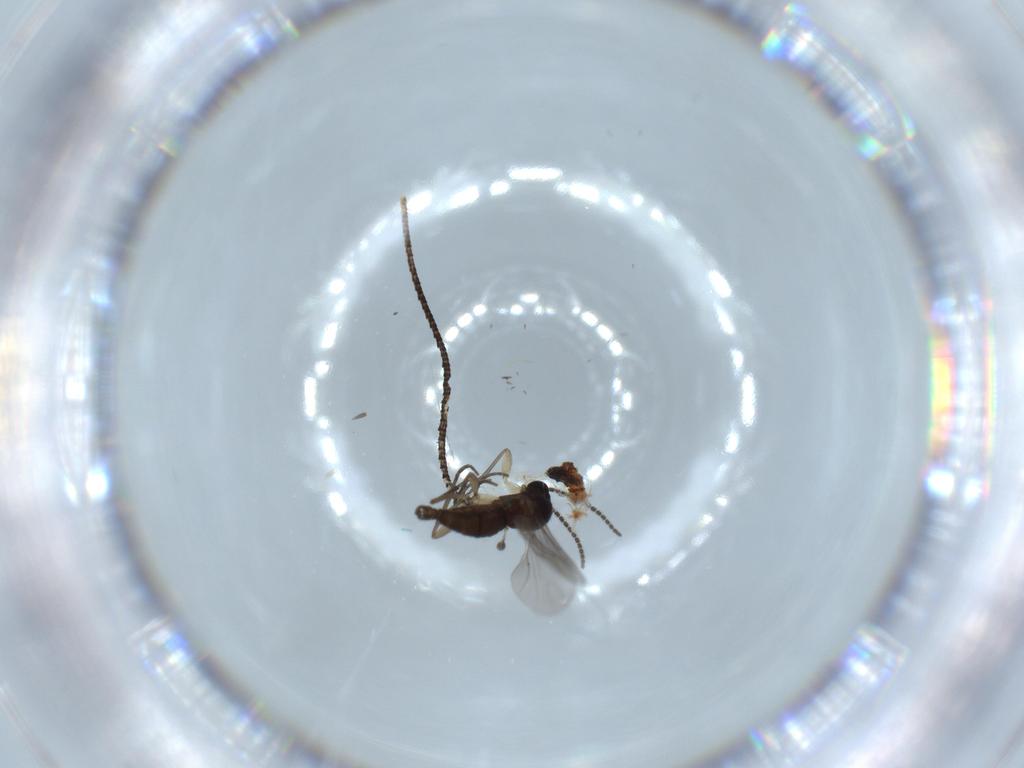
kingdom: Animalia
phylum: Arthropoda
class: Insecta
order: Diptera
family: Sciaridae
